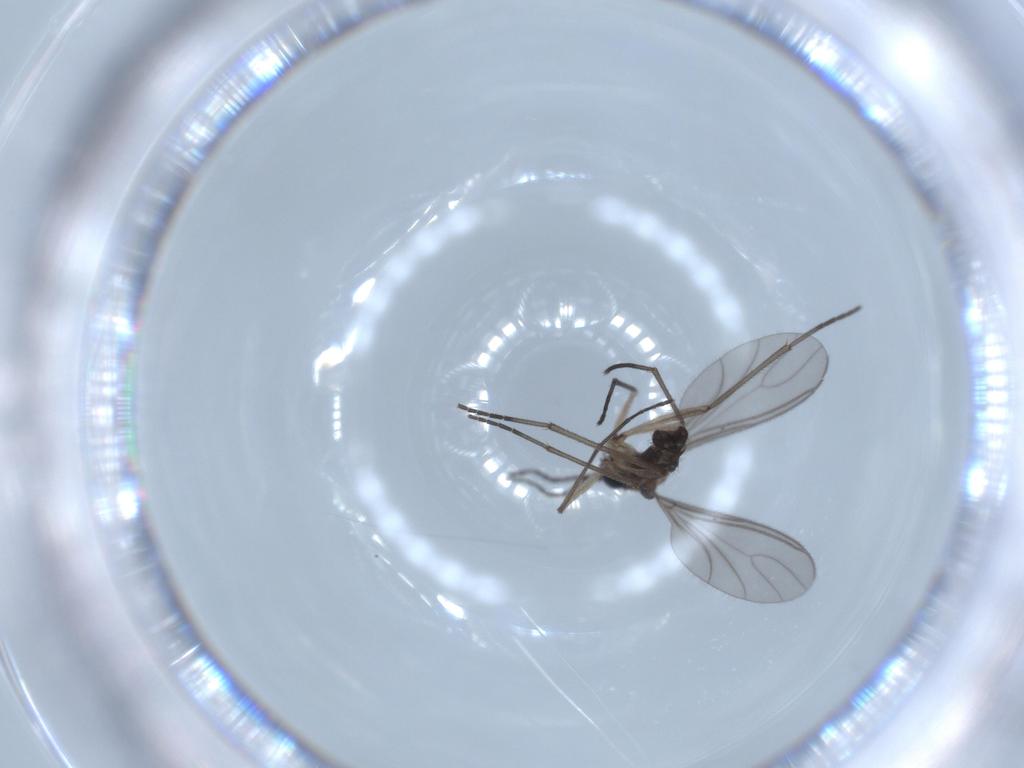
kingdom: Animalia
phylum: Arthropoda
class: Insecta
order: Diptera
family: Sciaridae
